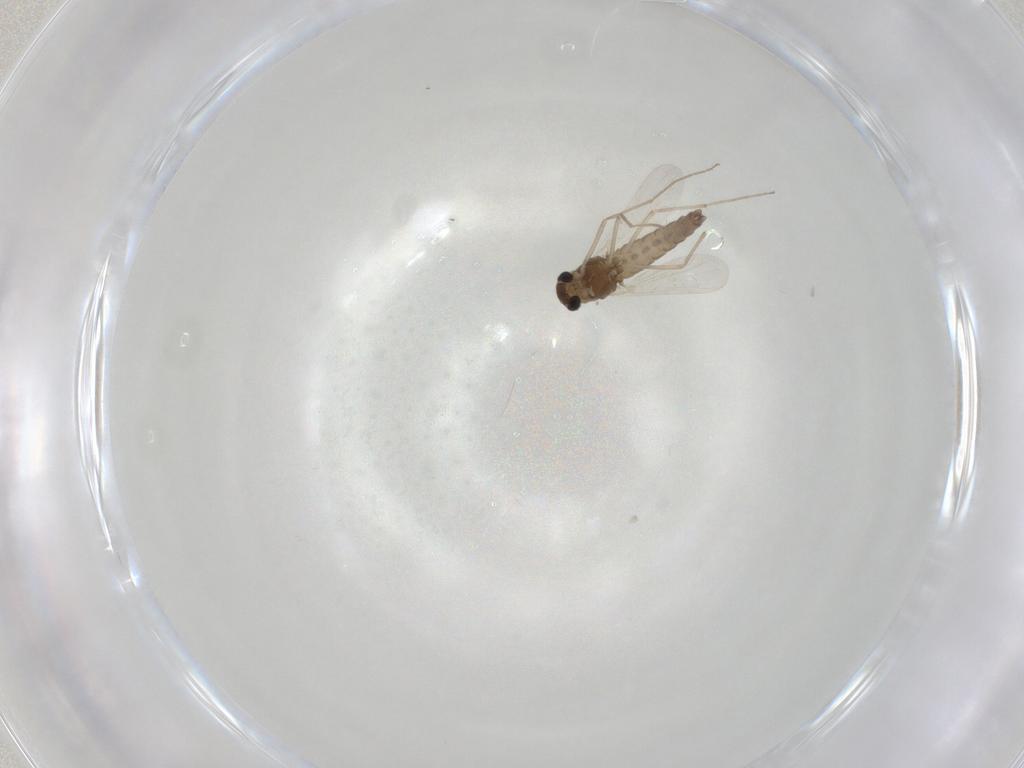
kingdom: Animalia
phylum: Arthropoda
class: Insecta
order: Diptera
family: Chironomidae
